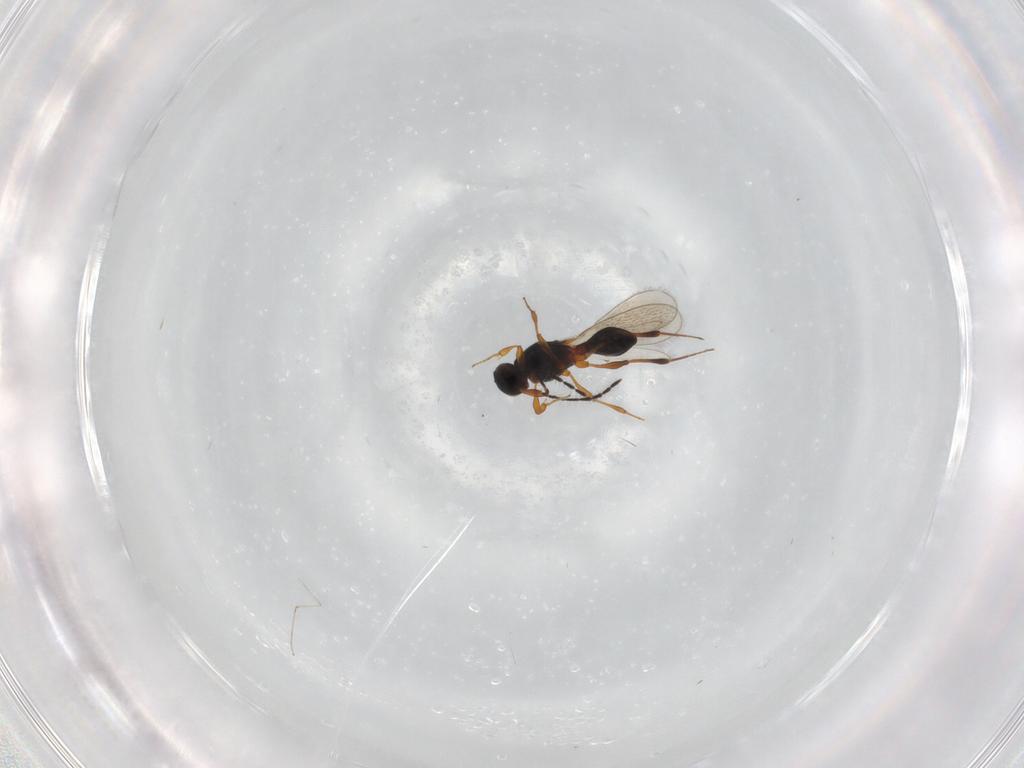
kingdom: Animalia
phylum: Arthropoda
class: Insecta
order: Hymenoptera
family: Platygastridae
